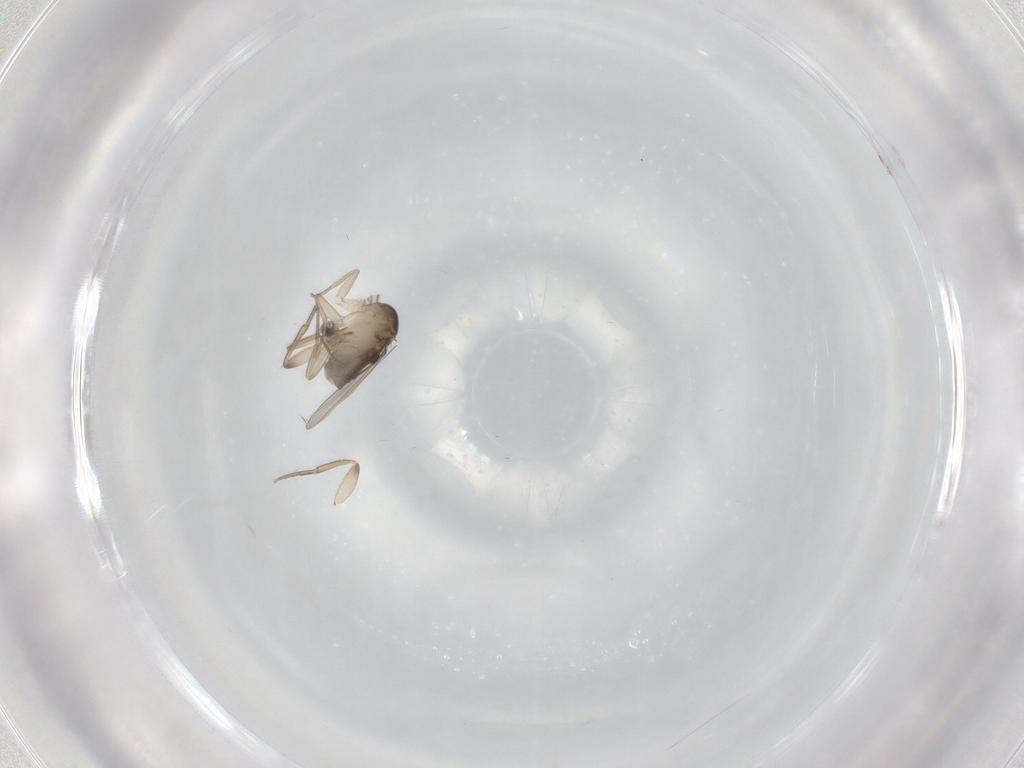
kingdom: Animalia
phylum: Arthropoda
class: Insecta
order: Diptera
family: Phoridae
